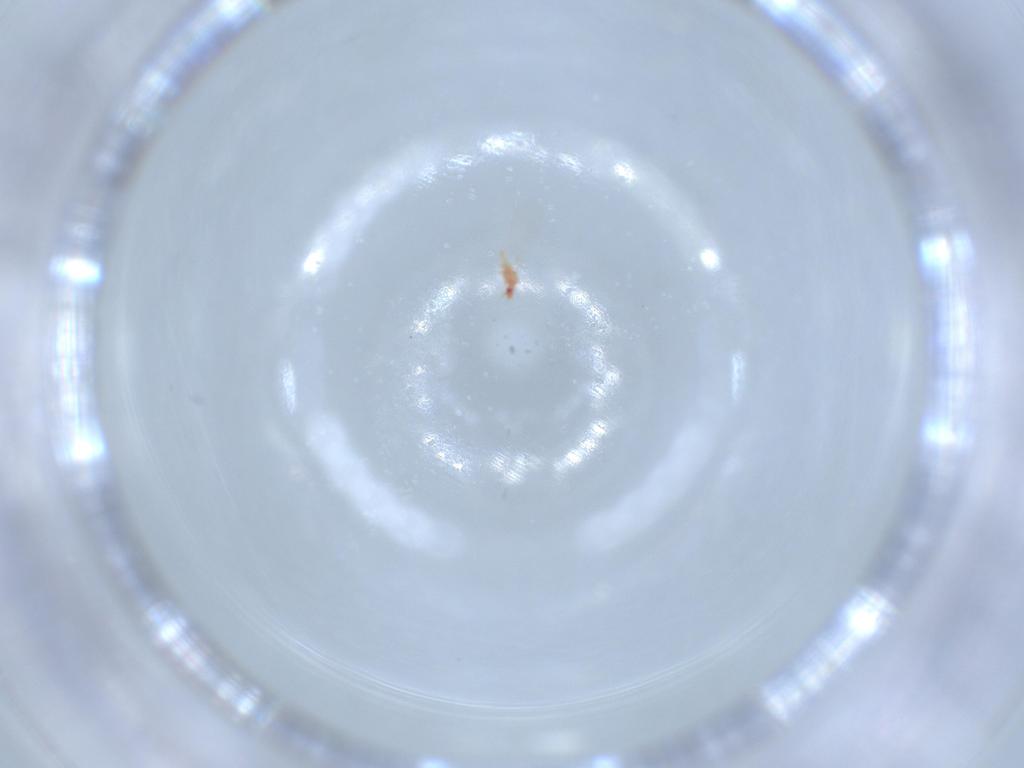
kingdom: Animalia
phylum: Arthropoda
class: Insecta
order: Blattodea
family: Ectobiidae
